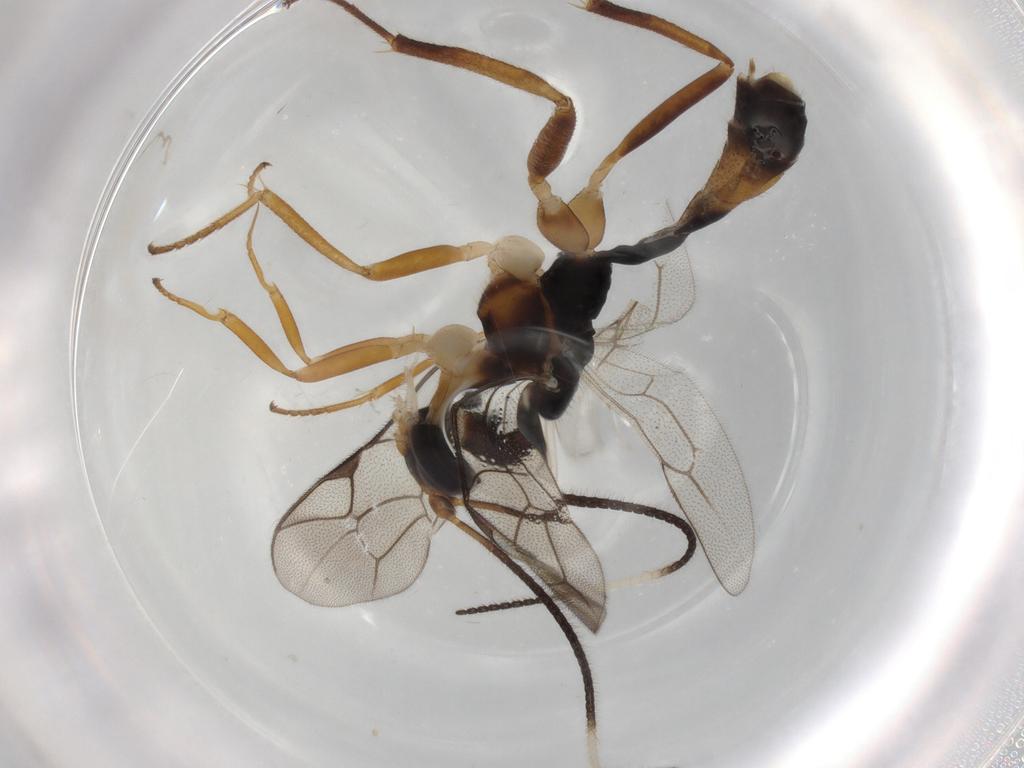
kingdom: Animalia
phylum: Arthropoda
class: Insecta
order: Hymenoptera
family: Ichneumonidae
